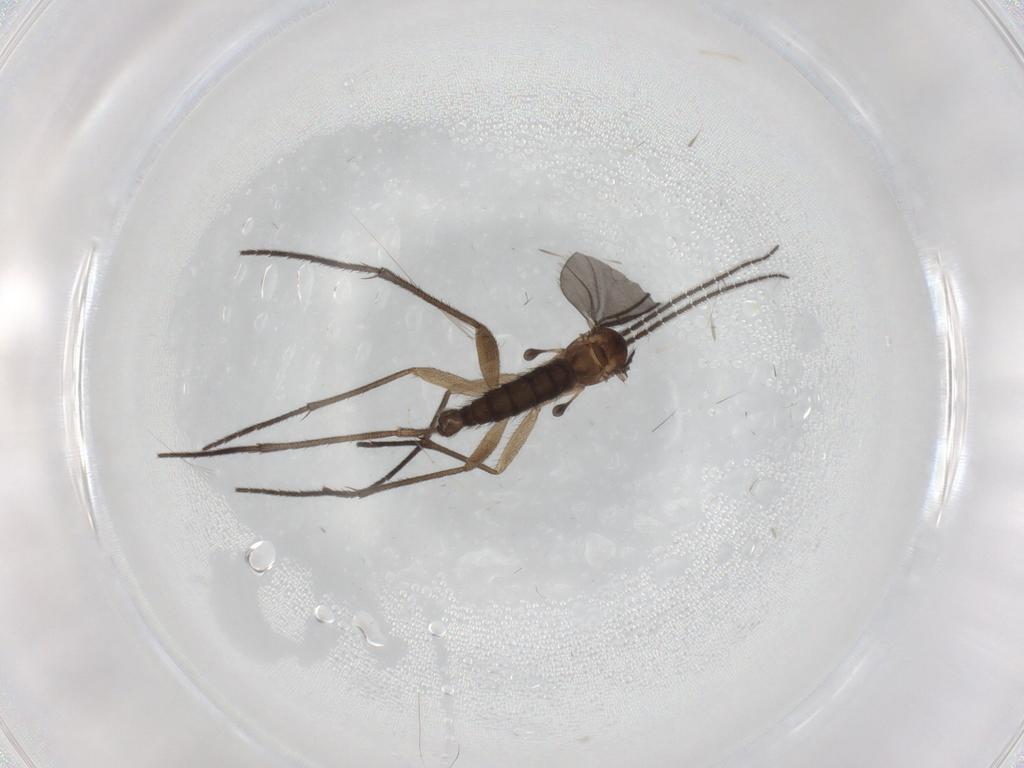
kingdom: Animalia
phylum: Arthropoda
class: Insecta
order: Diptera
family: Sciaridae
